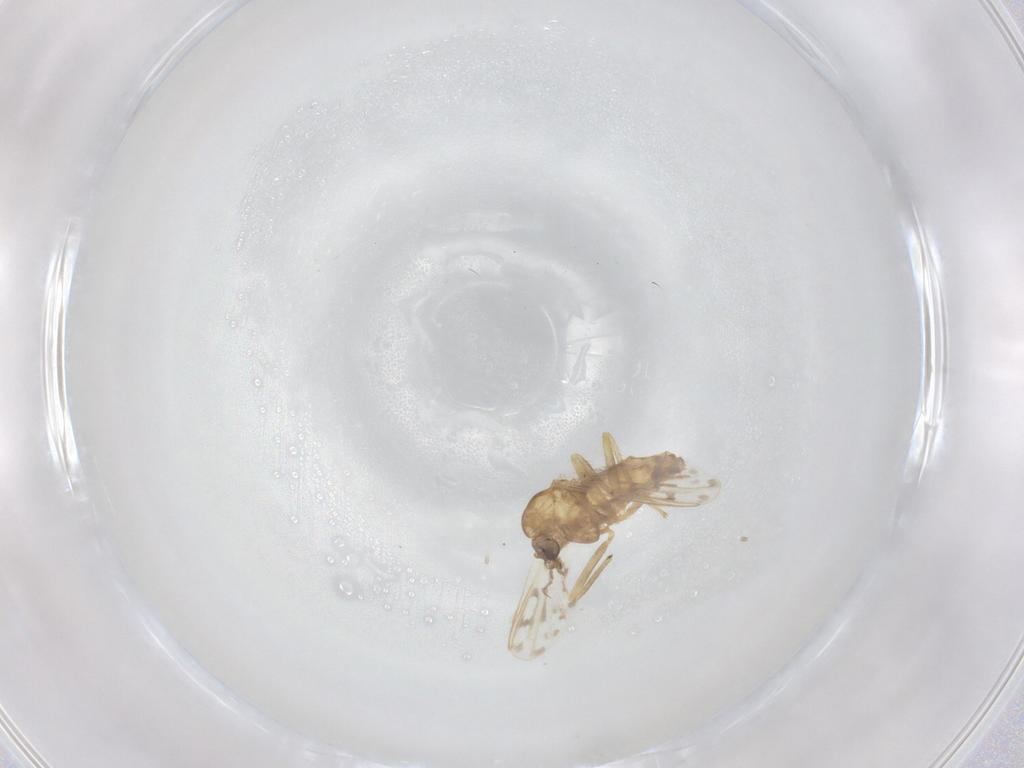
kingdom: Animalia
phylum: Arthropoda
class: Insecta
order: Diptera
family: Chironomidae
